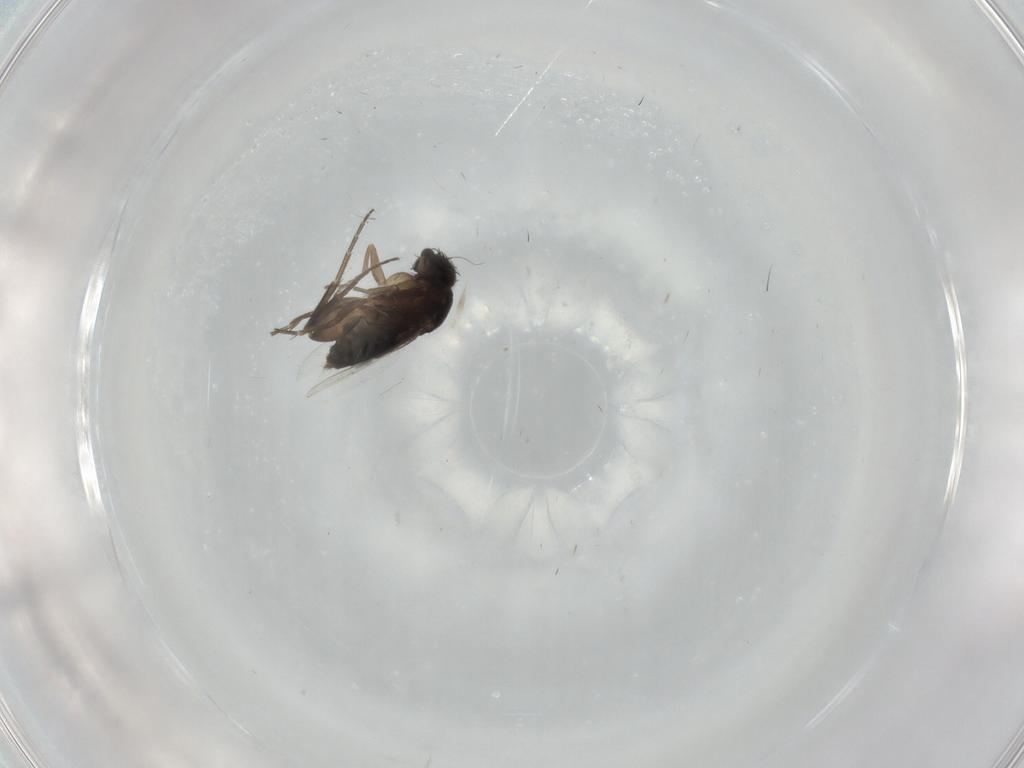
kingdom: Animalia
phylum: Arthropoda
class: Insecta
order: Diptera
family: Phoridae
